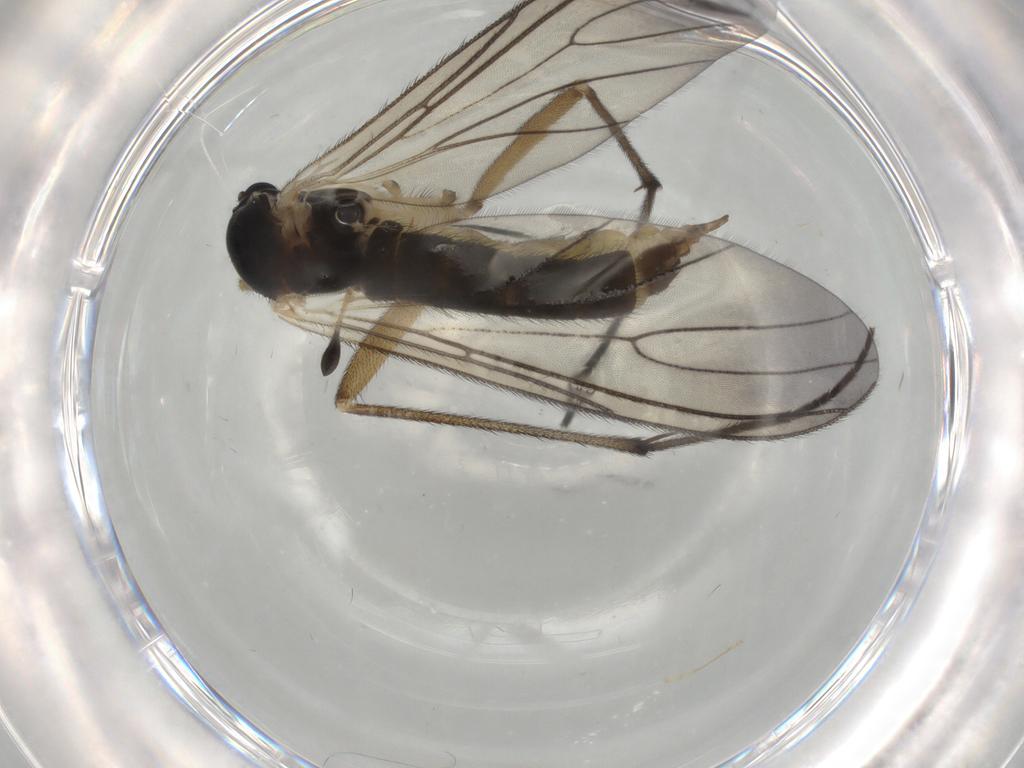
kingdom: Animalia
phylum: Arthropoda
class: Insecta
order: Diptera
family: Sciaridae
